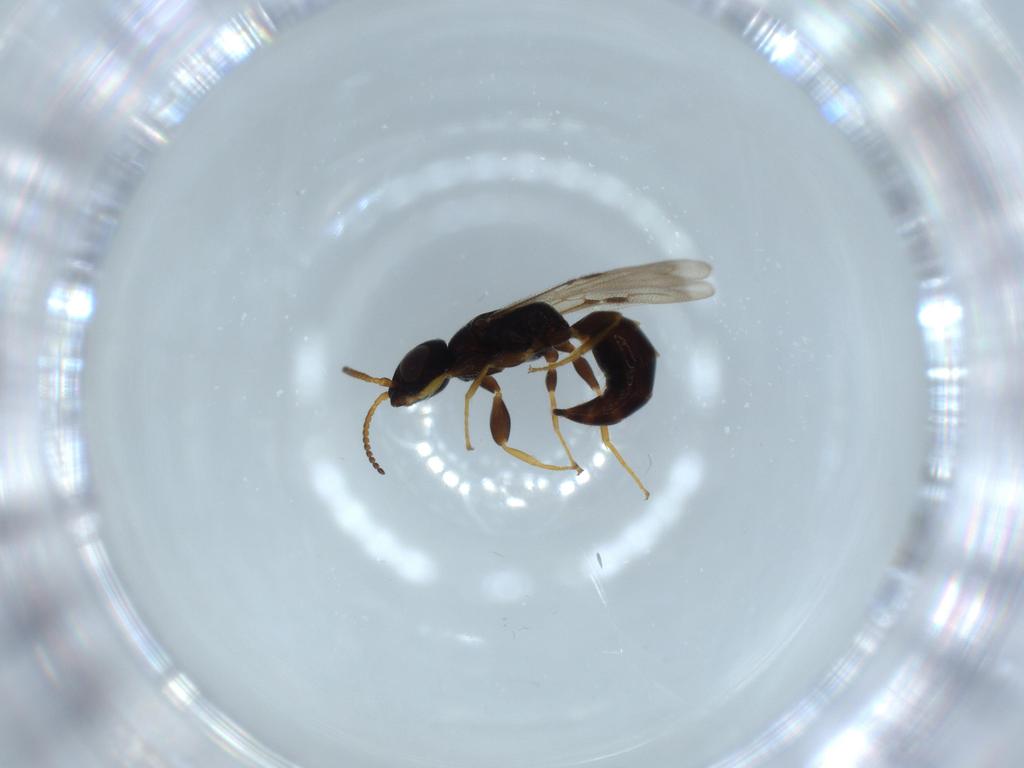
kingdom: Animalia
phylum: Arthropoda
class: Insecta
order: Hymenoptera
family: Bethylidae
